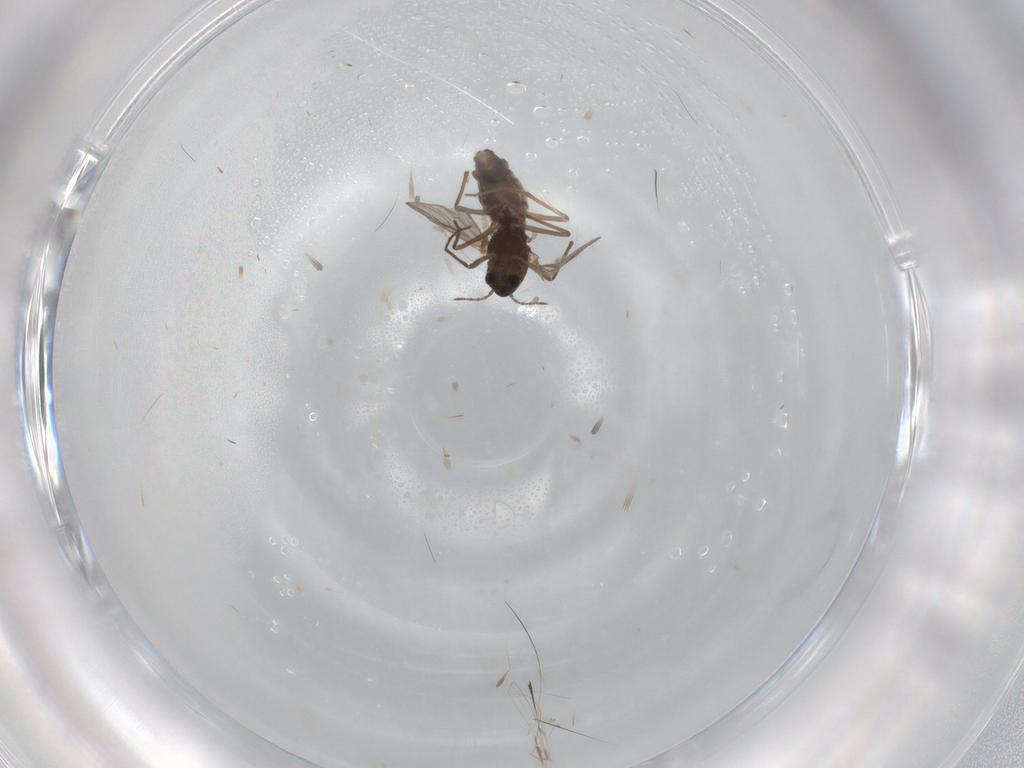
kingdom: Animalia
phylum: Arthropoda
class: Insecta
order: Diptera
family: Chironomidae
